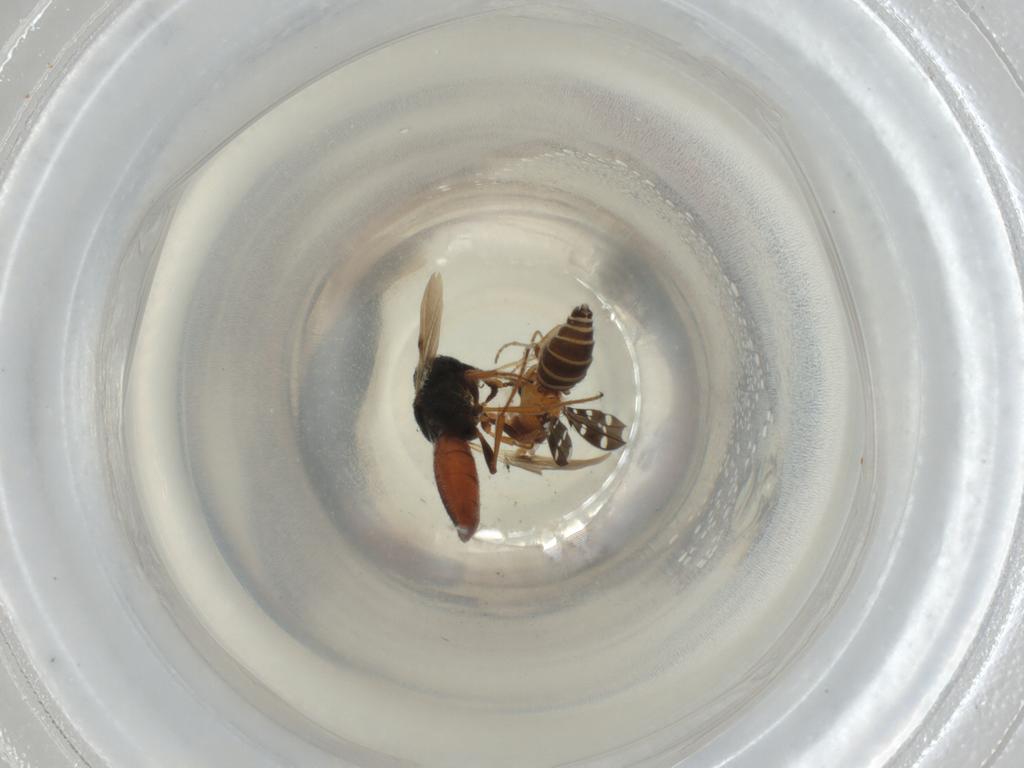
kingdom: Animalia
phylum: Arthropoda
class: Insecta
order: Diptera
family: Ephydridae
